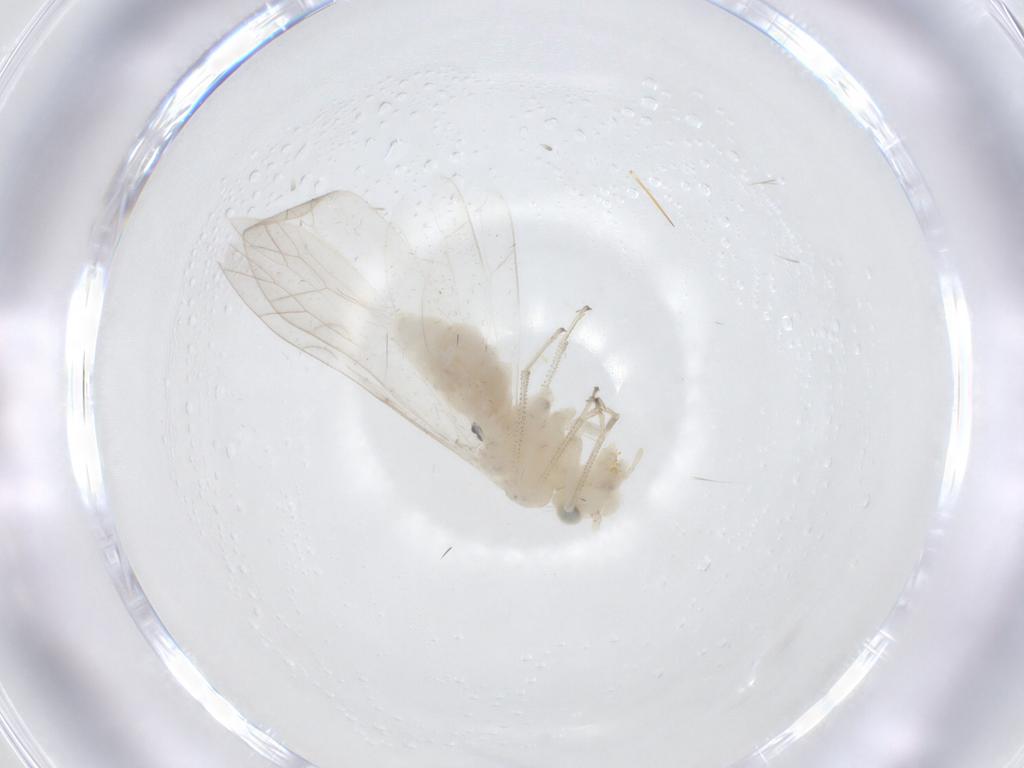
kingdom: Animalia
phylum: Arthropoda
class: Insecta
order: Psocodea
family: Caeciliusidae
